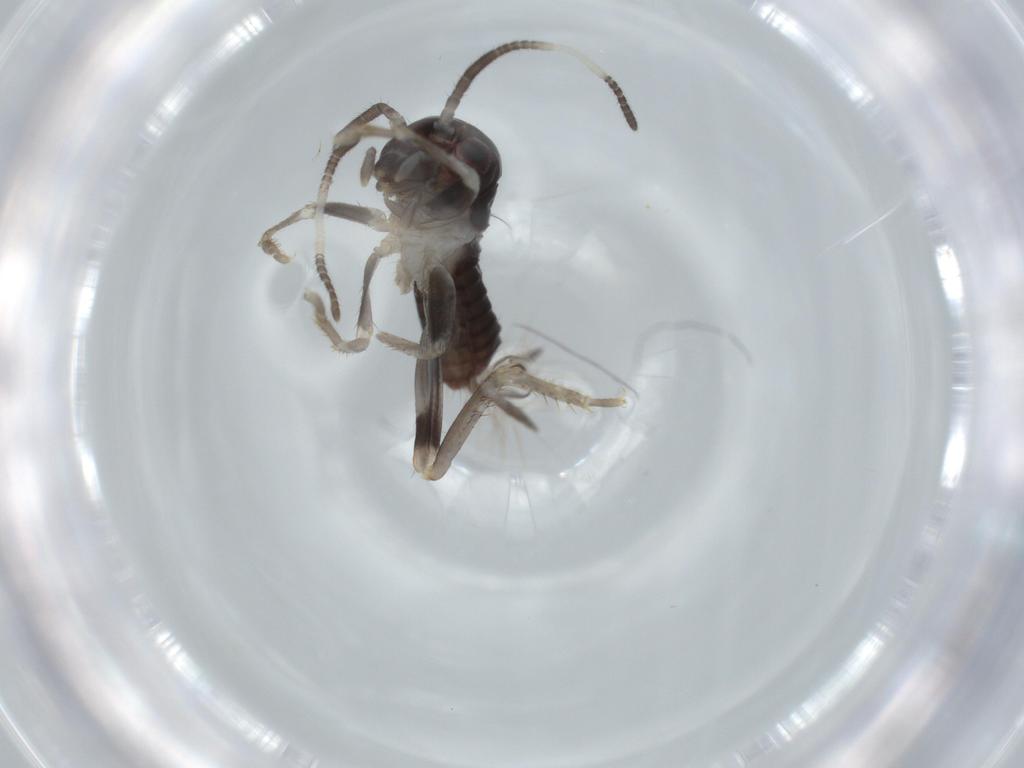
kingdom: Animalia
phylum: Arthropoda
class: Insecta
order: Orthoptera
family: Gryllidae
